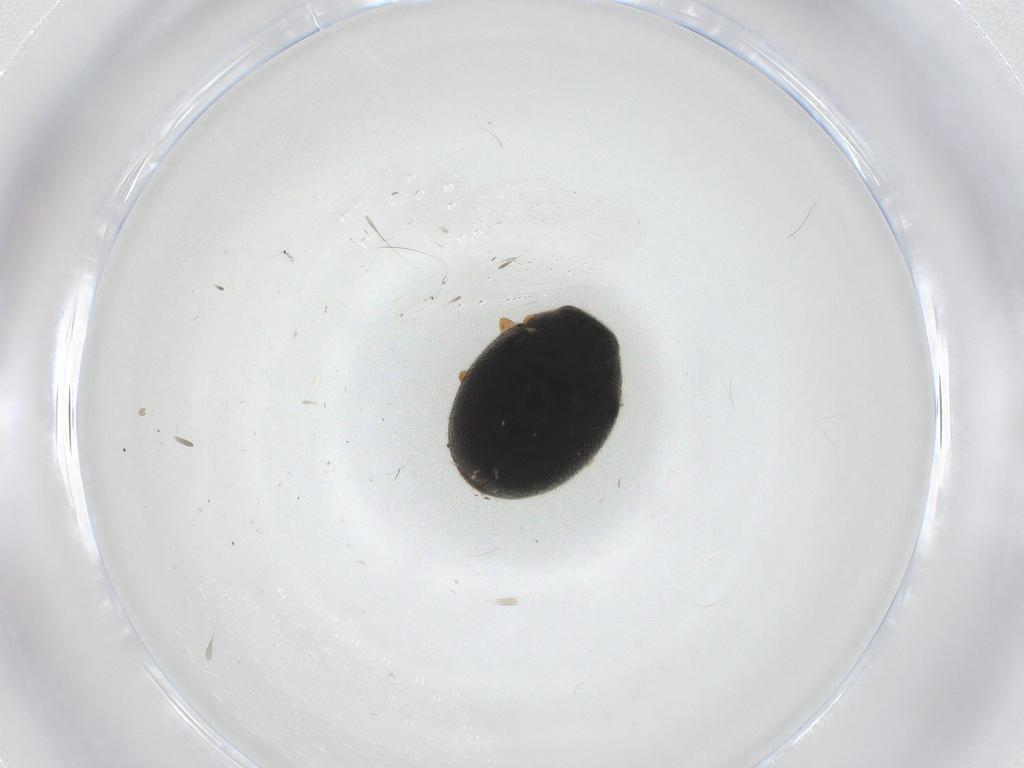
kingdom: Animalia
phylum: Arthropoda
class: Insecta
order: Coleoptera
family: Coccinellidae
